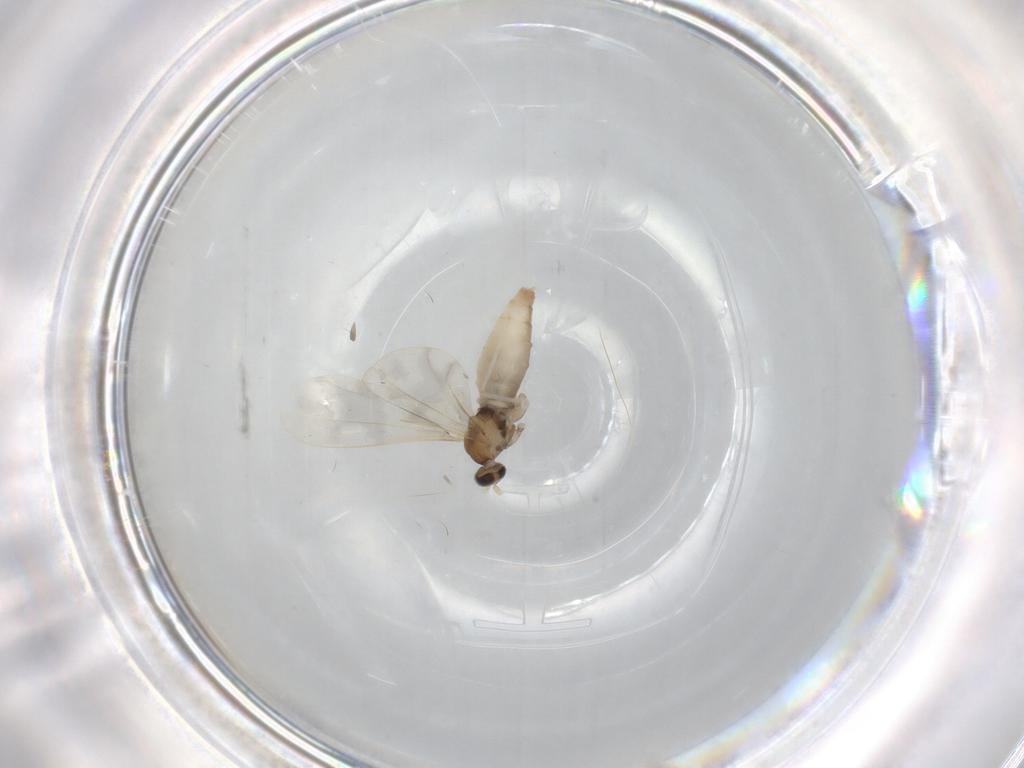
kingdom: Animalia
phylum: Arthropoda
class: Insecta
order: Diptera
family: Cecidomyiidae
